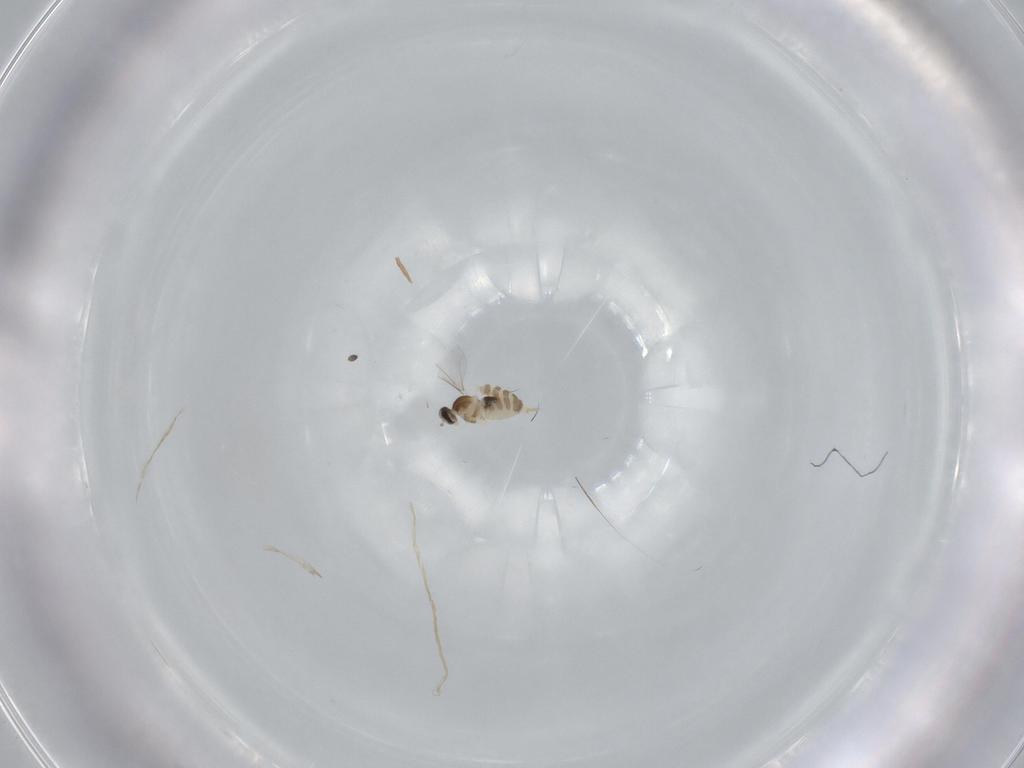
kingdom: Animalia
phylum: Arthropoda
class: Insecta
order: Diptera
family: Cecidomyiidae
